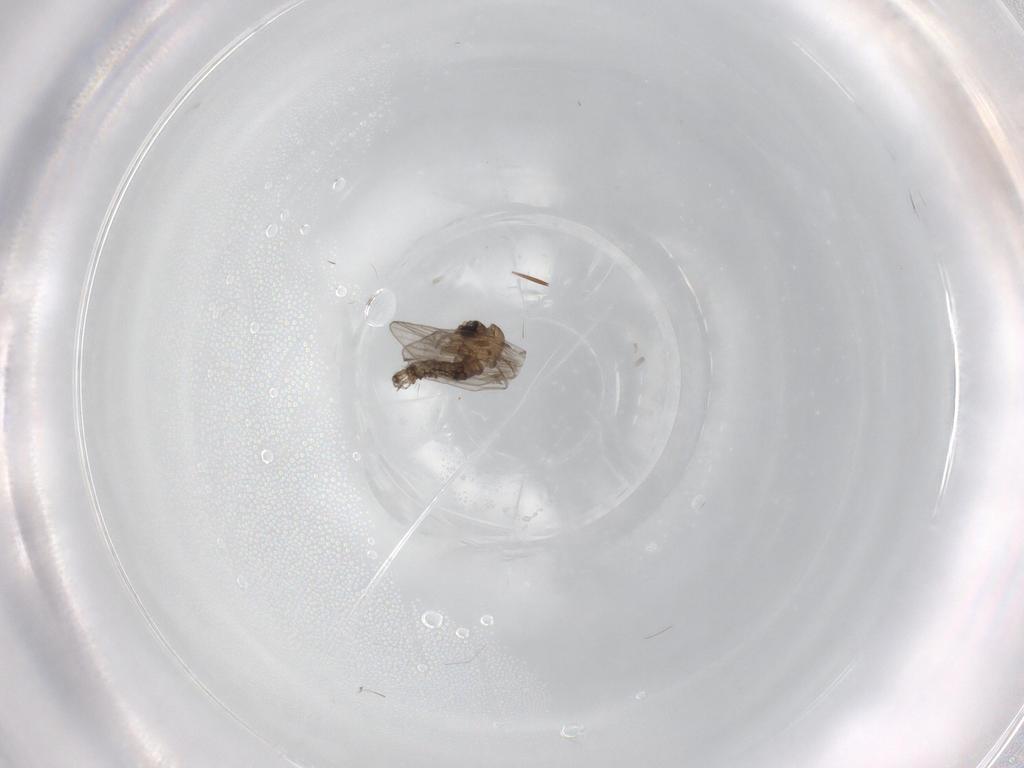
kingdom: Animalia
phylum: Arthropoda
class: Insecta
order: Diptera
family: Psychodidae
